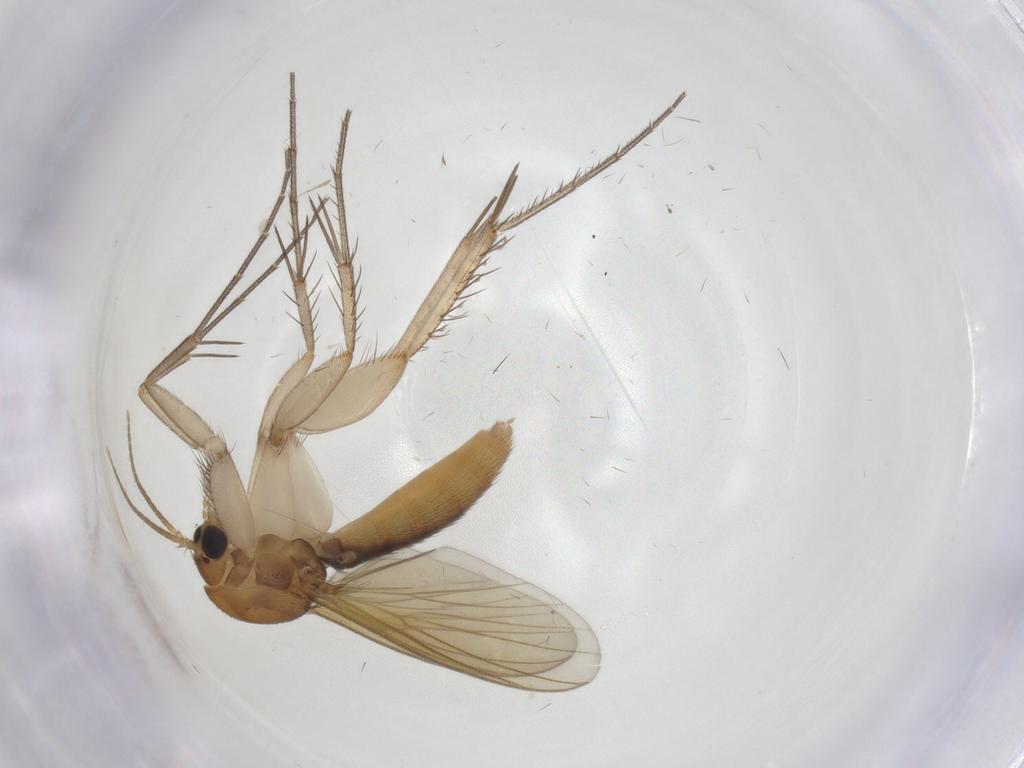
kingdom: Animalia
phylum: Arthropoda
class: Insecta
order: Diptera
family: Mycetophilidae
